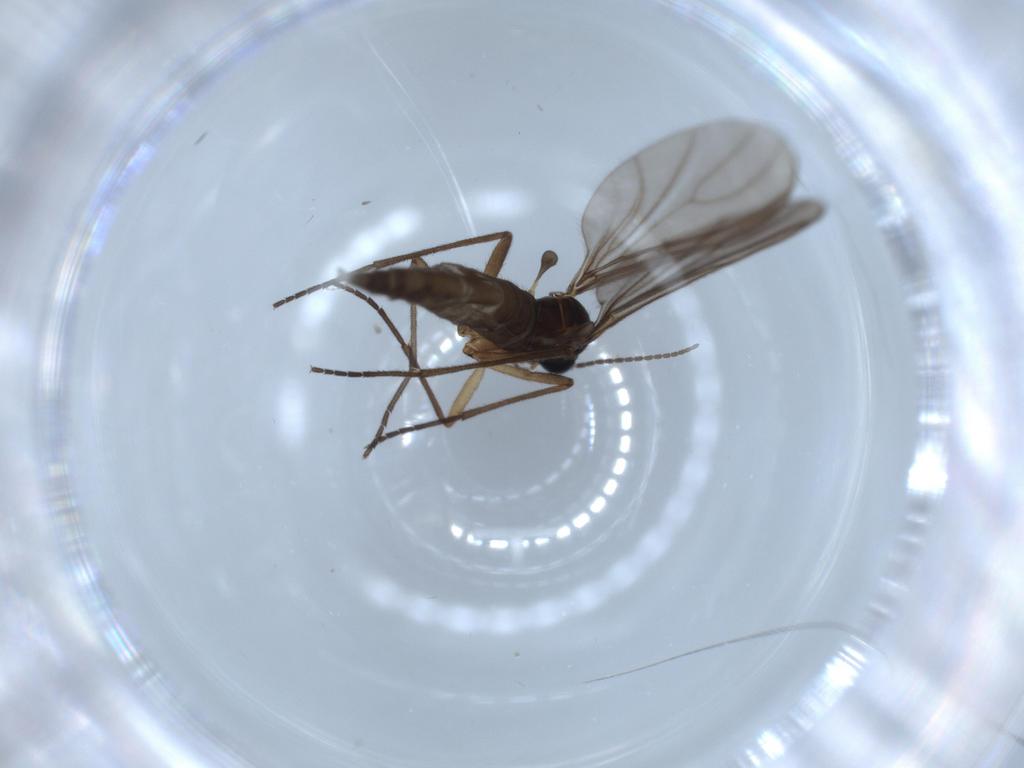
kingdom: Animalia
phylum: Arthropoda
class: Insecta
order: Diptera
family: Sciaridae
